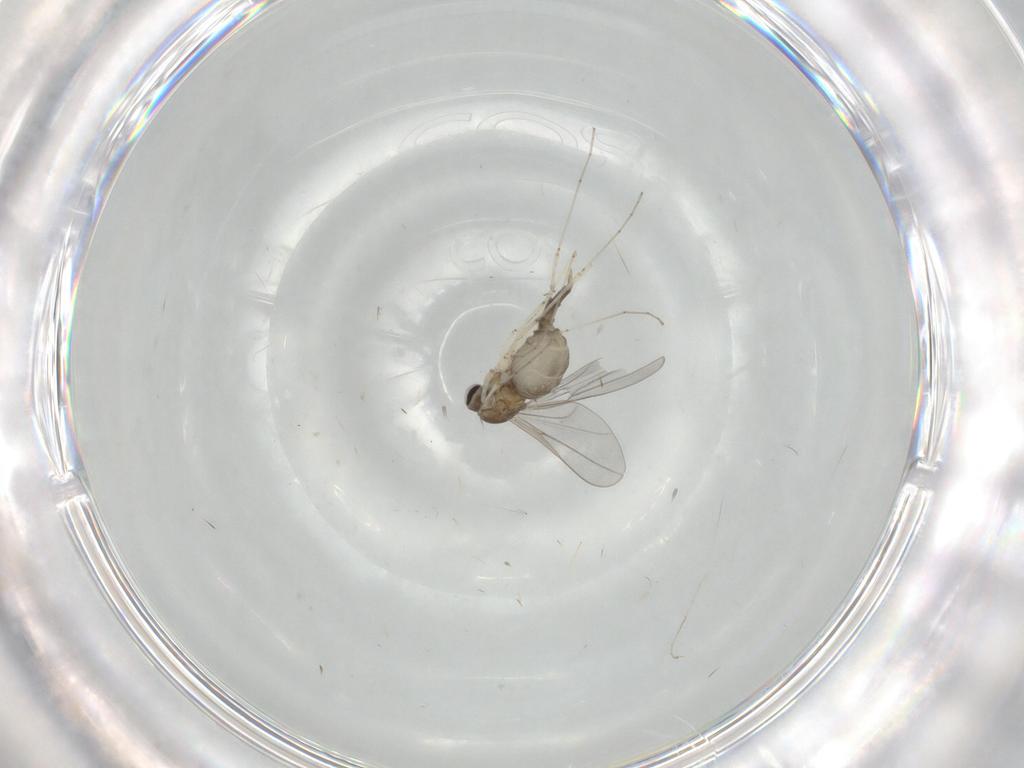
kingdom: Animalia
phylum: Arthropoda
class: Insecta
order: Diptera
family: Cecidomyiidae
